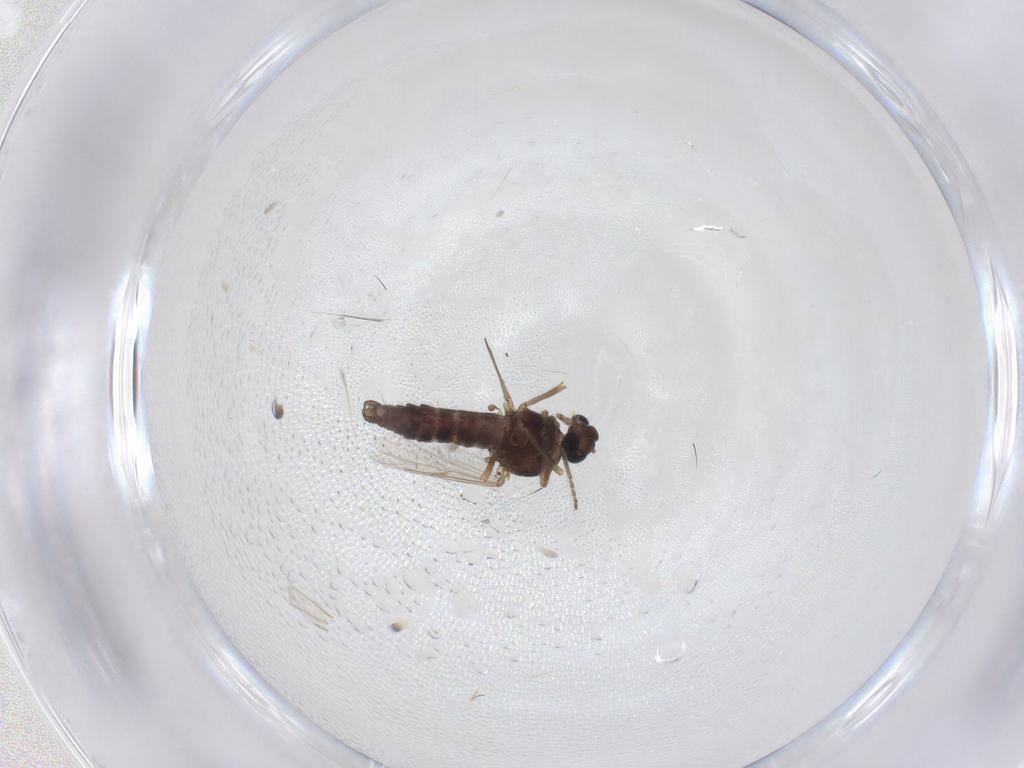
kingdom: Animalia
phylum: Arthropoda
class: Insecta
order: Diptera
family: Ceratopogonidae
